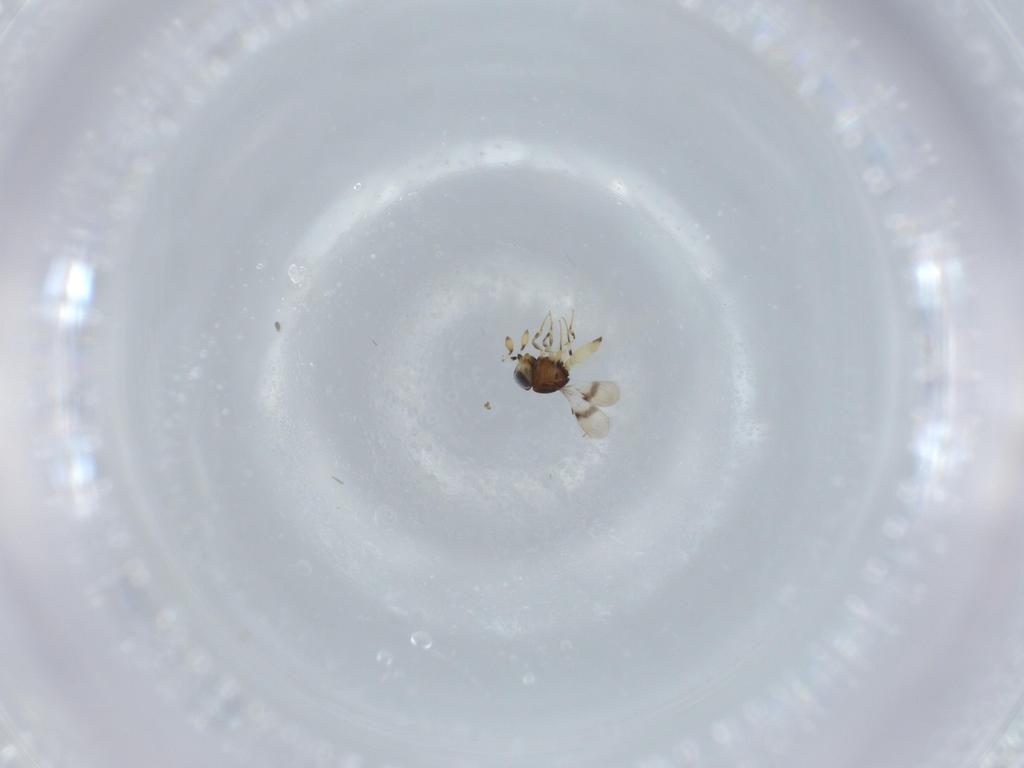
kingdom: Animalia
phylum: Arthropoda
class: Insecta
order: Hymenoptera
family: Scelionidae
